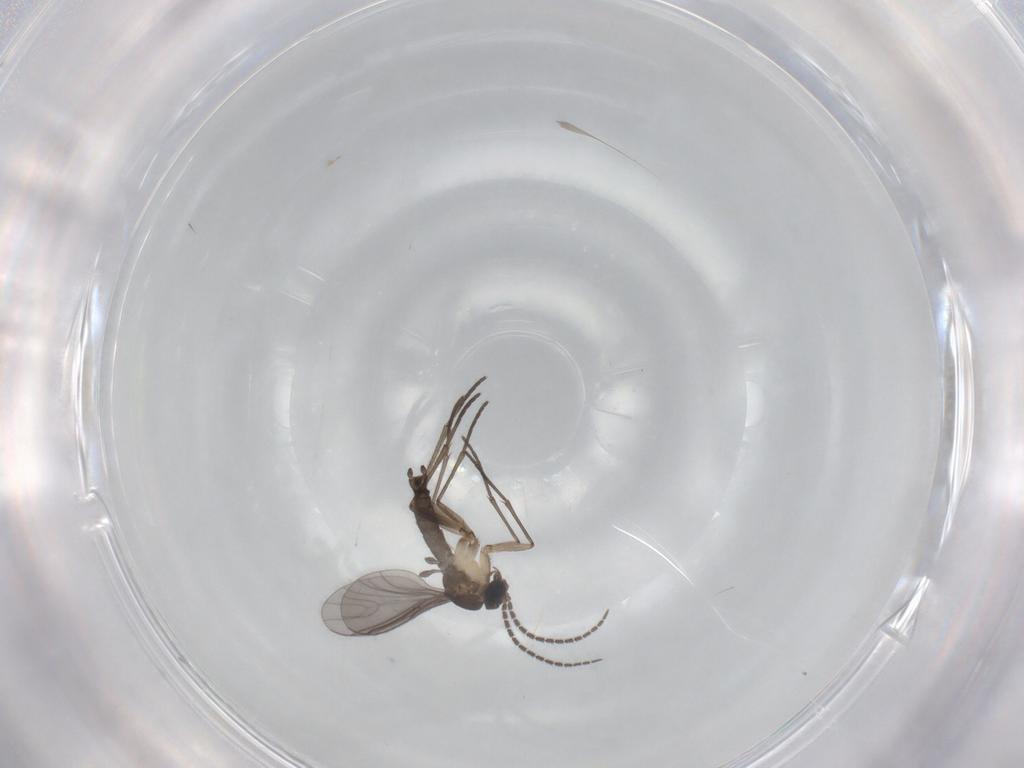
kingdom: Animalia
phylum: Arthropoda
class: Insecta
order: Diptera
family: Sciaridae
